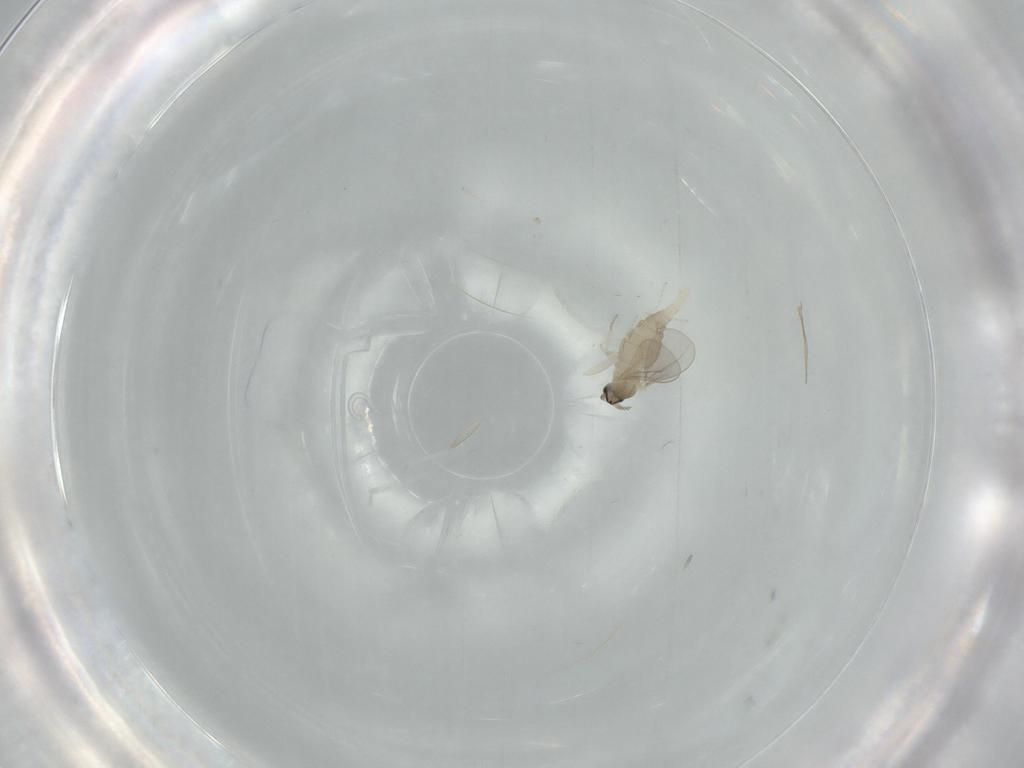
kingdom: Animalia
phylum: Arthropoda
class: Insecta
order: Diptera
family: Cecidomyiidae
